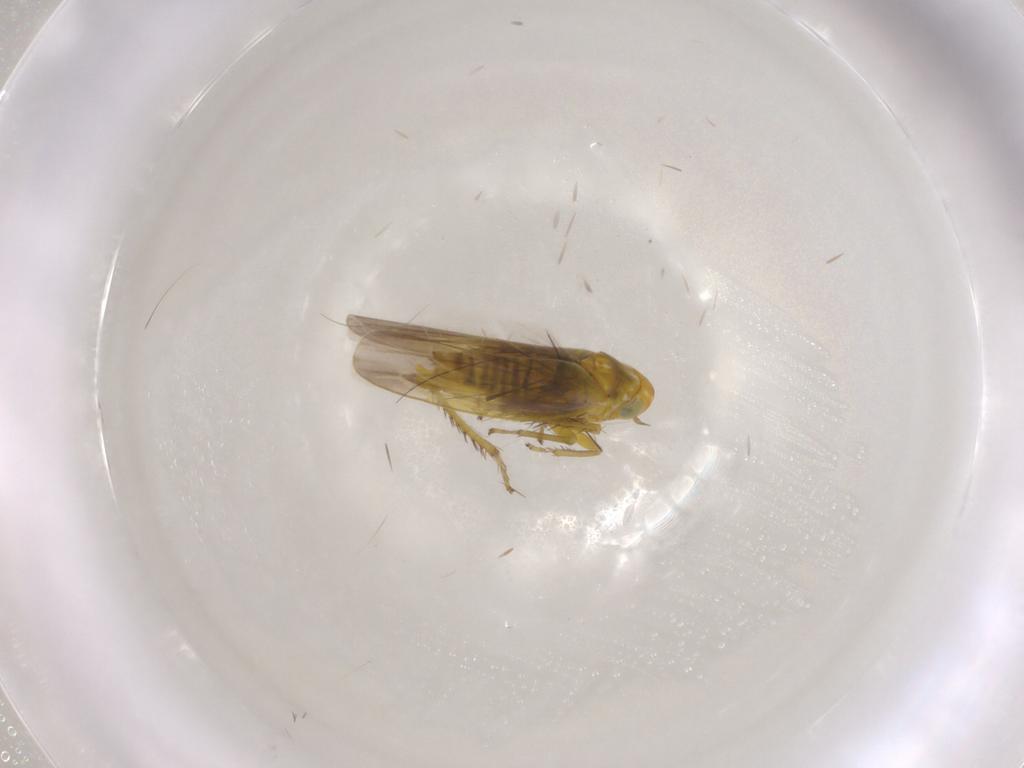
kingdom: Animalia
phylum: Arthropoda
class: Insecta
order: Hemiptera
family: Cicadellidae
